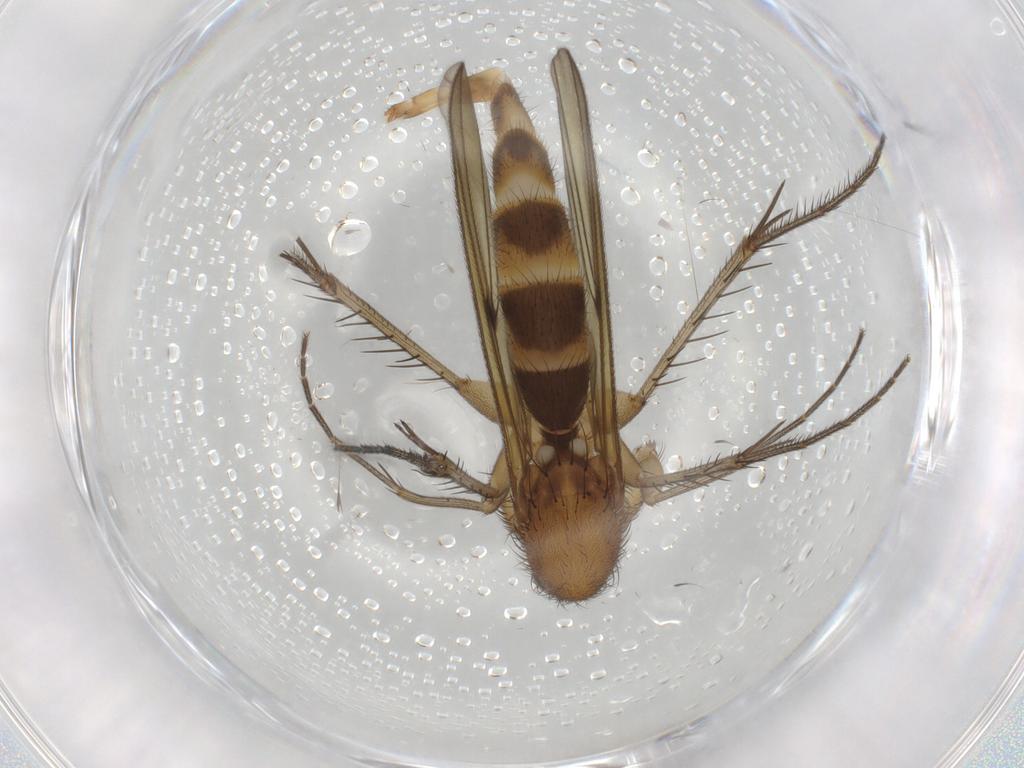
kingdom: Animalia
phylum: Arthropoda
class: Insecta
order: Diptera
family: Mycetophilidae
